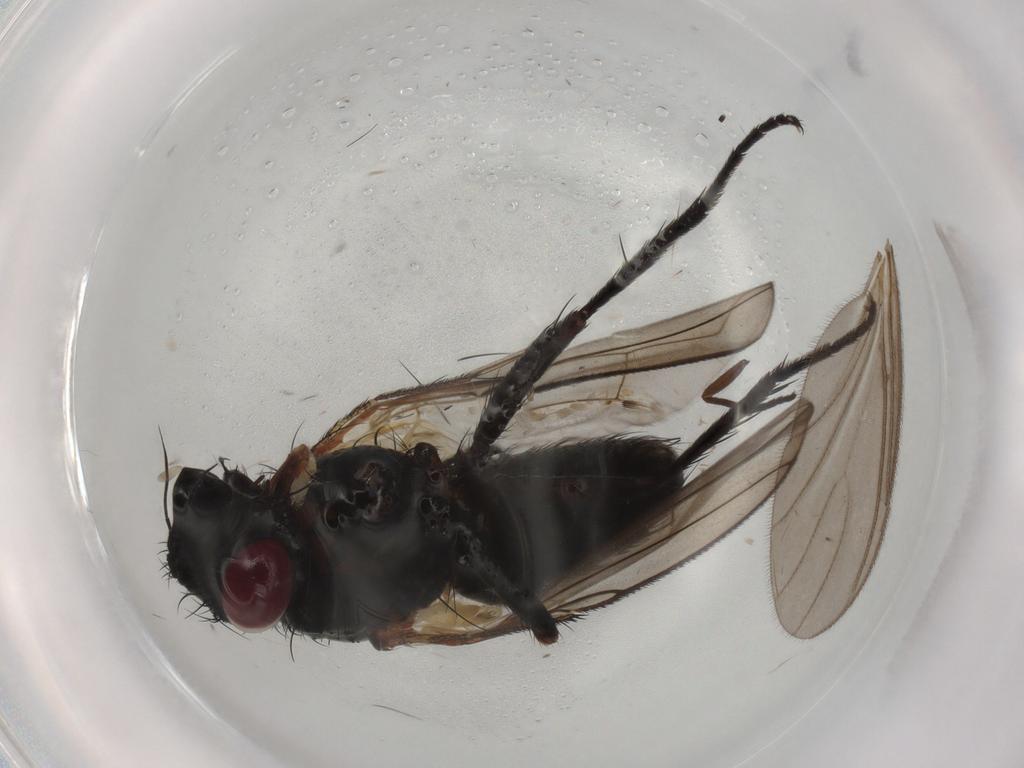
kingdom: Animalia
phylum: Arthropoda
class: Insecta
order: Diptera
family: Tachinidae
